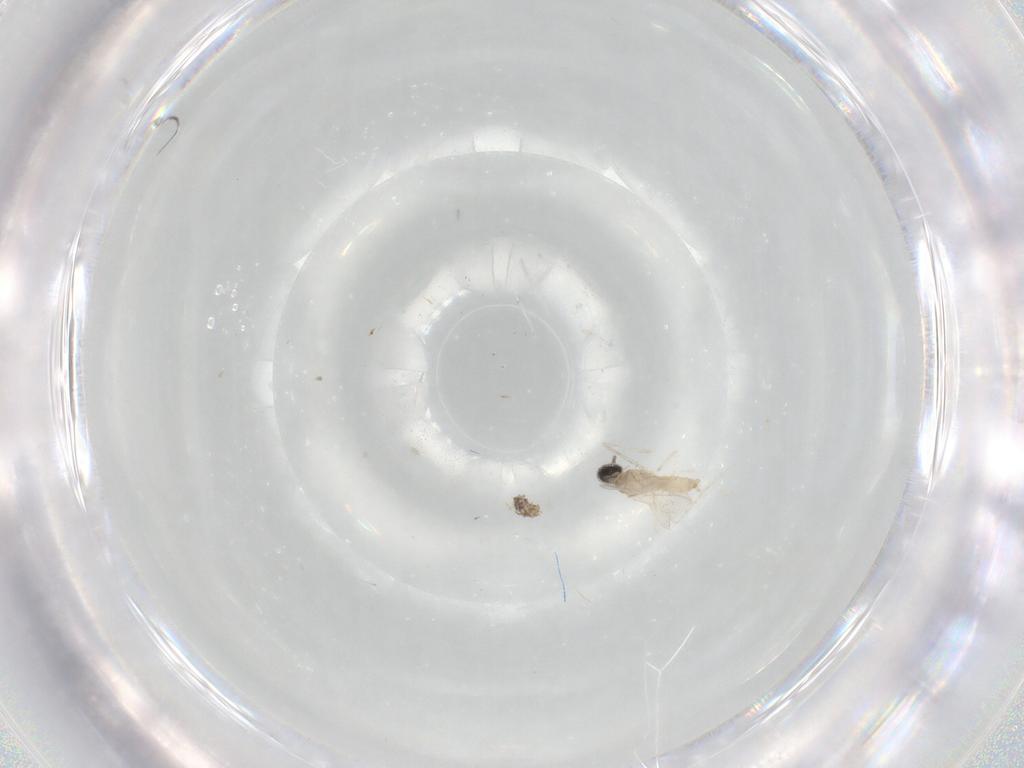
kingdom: Animalia
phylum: Arthropoda
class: Insecta
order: Diptera
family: Cecidomyiidae
